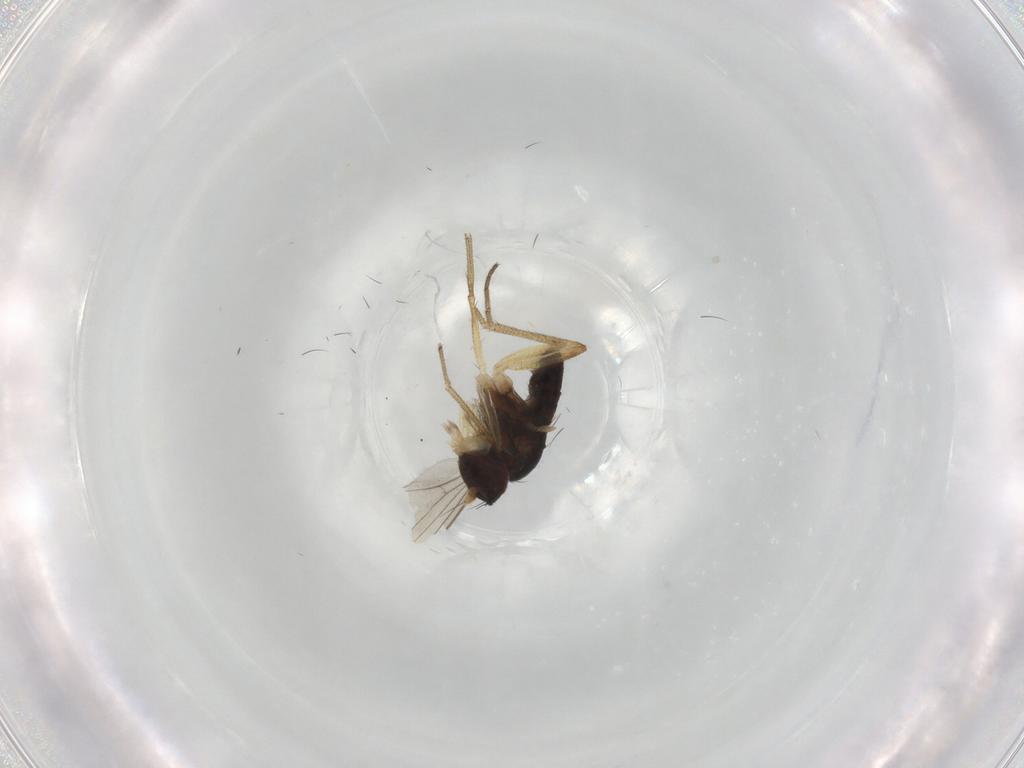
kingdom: Animalia
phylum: Arthropoda
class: Insecta
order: Diptera
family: Dolichopodidae
